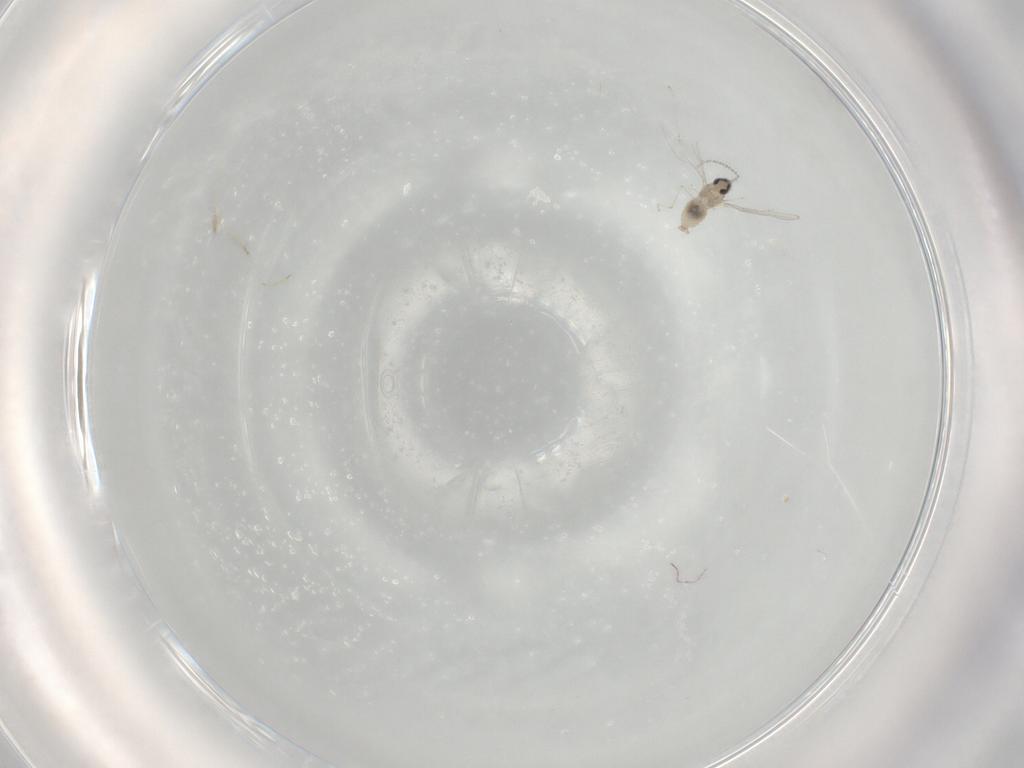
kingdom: Animalia
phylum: Arthropoda
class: Insecta
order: Diptera
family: Cecidomyiidae
